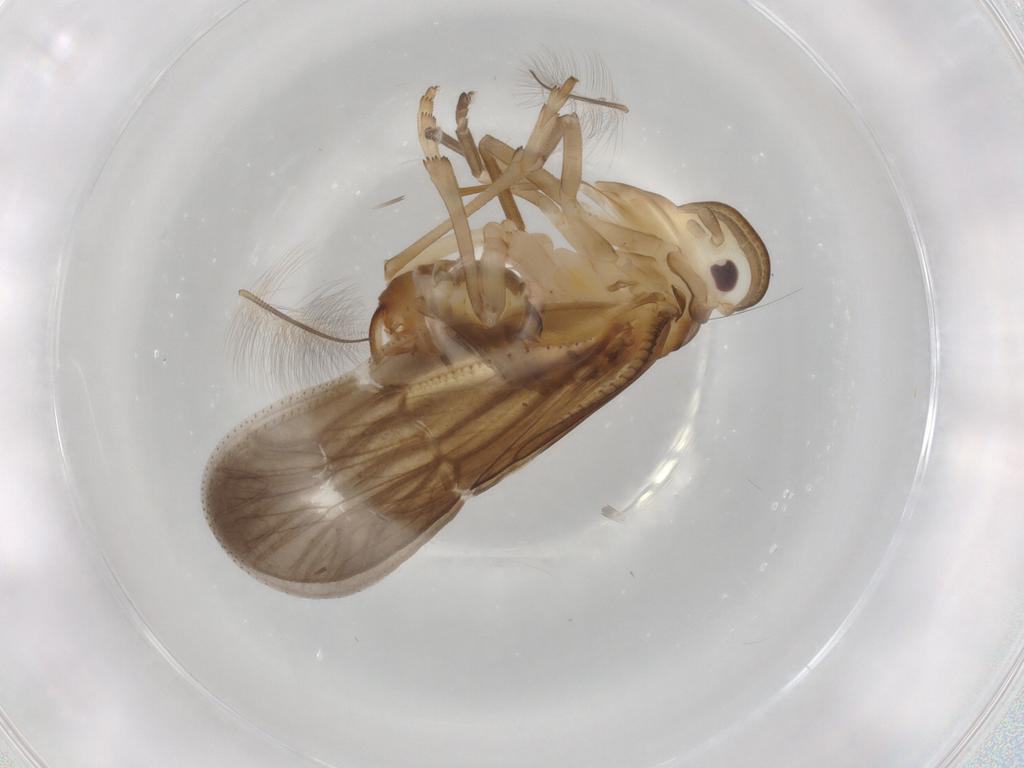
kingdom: Animalia
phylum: Arthropoda
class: Insecta
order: Hemiptera
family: Aleyrodidae
